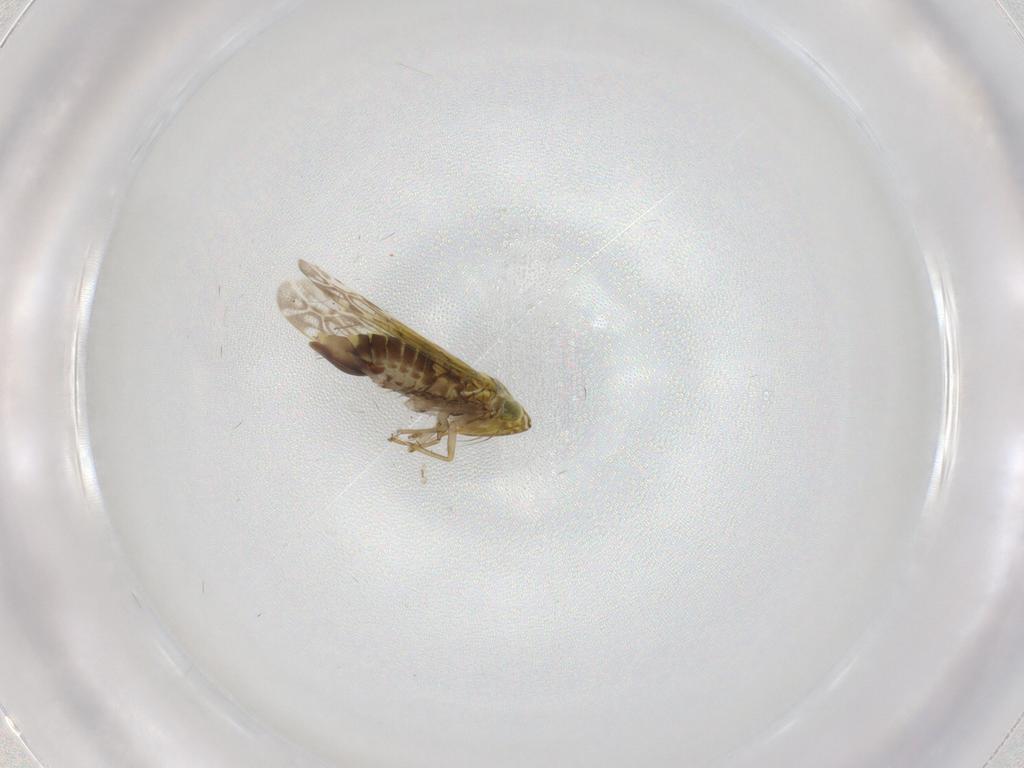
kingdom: Animalia
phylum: Arthropoda
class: Insecta
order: Hemiptera
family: Cicadellidae
